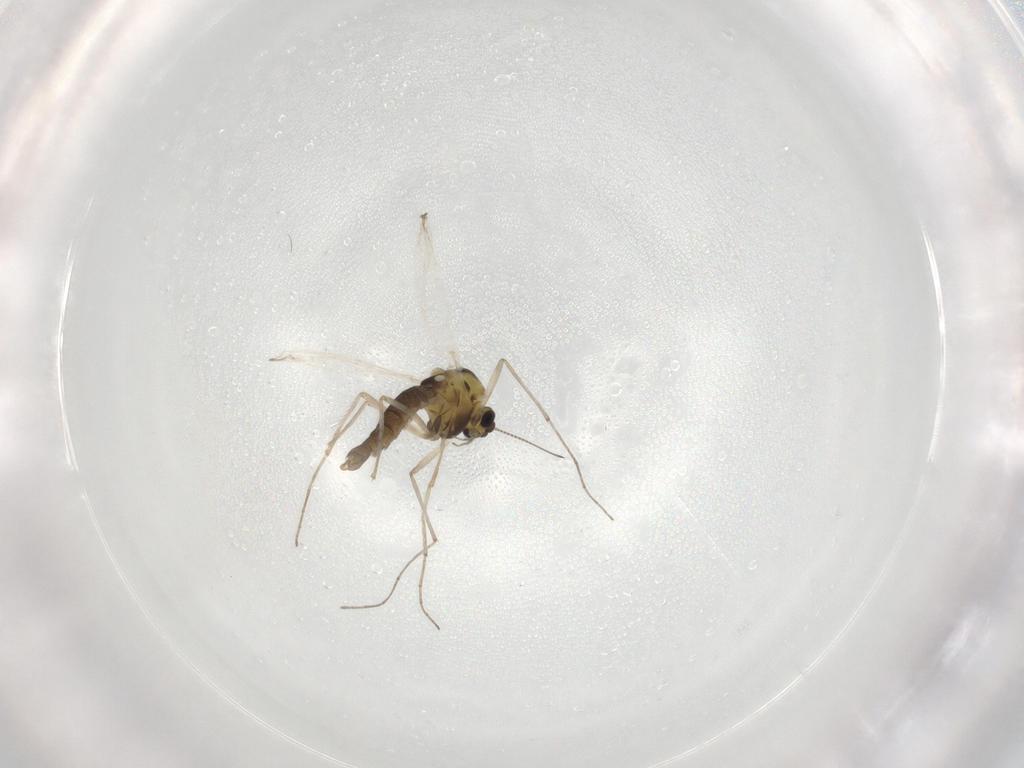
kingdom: Animalia
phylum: Arthropoda
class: Insecta
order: Diptera
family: Chironomidae
